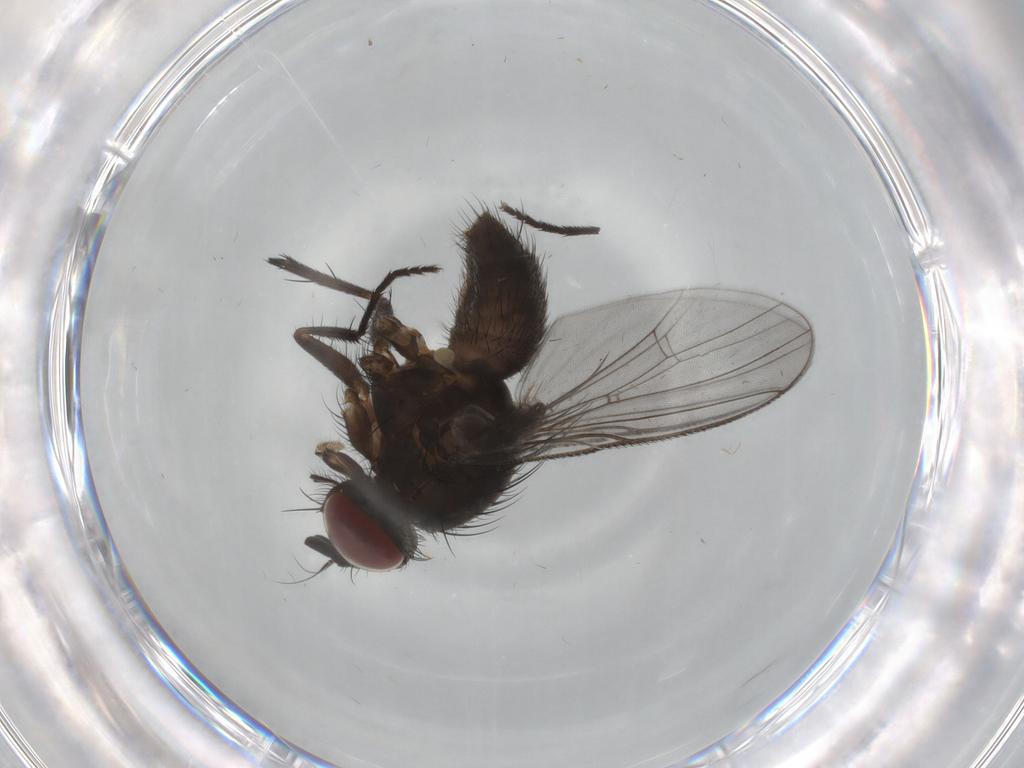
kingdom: Animalia
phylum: Arthropoda
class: Insecta
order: Diptera
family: Muscidae
